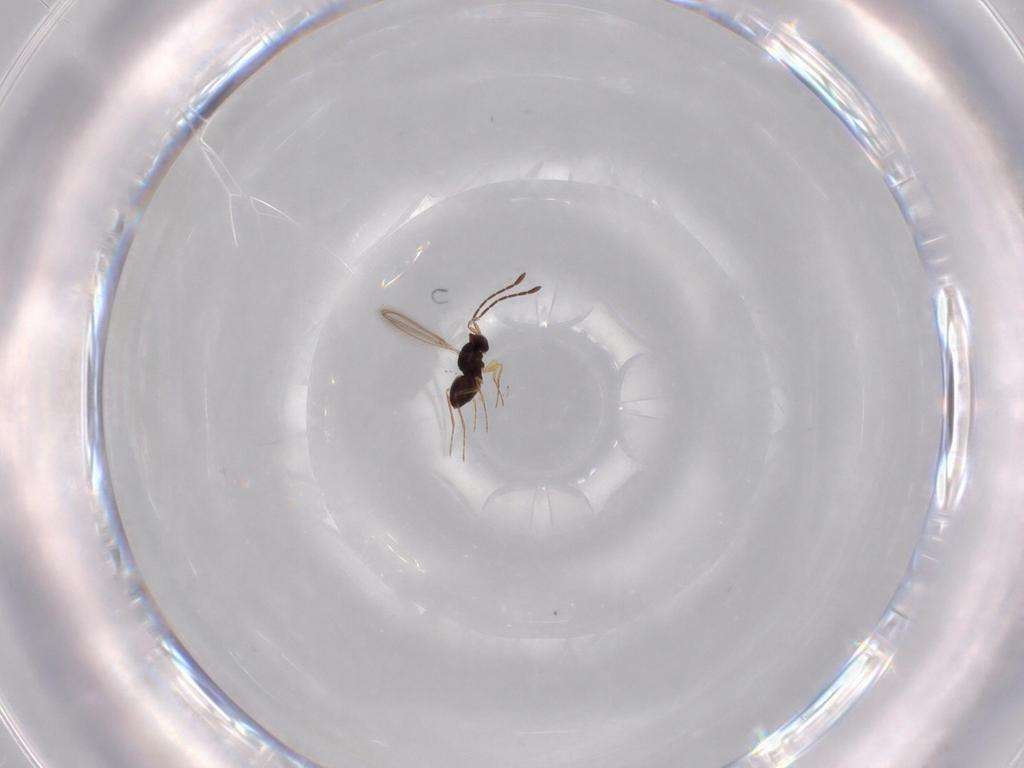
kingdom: Animalia
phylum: Arthropoda
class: Insecta
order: Hymenoptera
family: Mymaridae
